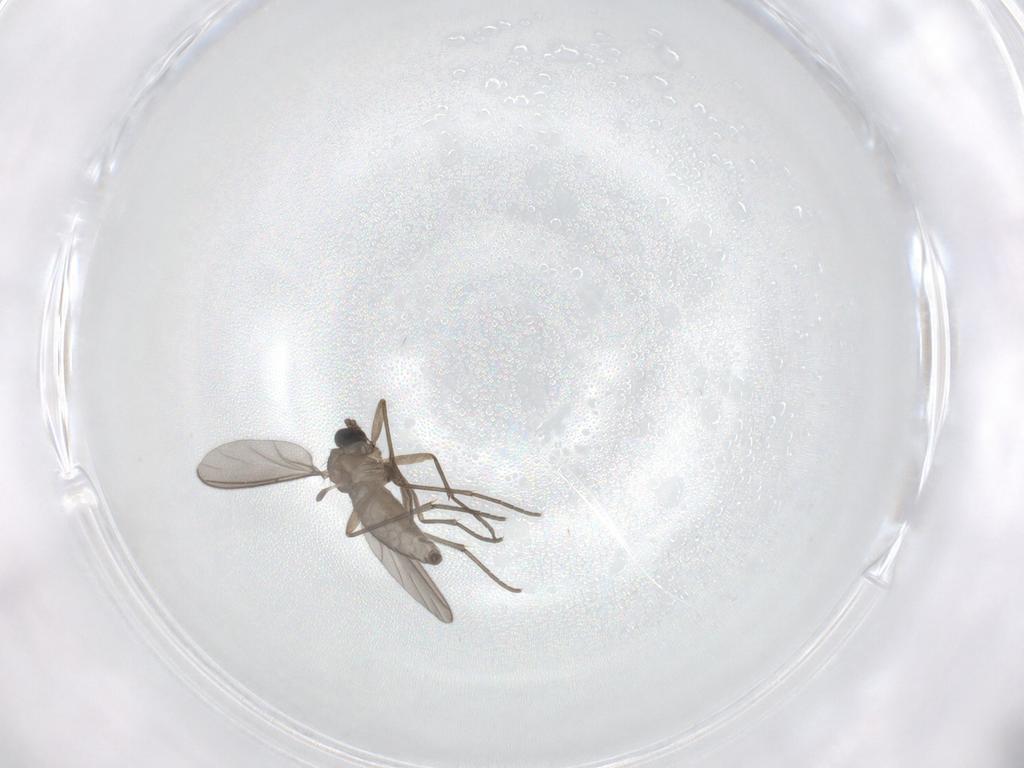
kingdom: Animalia
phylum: Arthropoda
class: Insecta
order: Diptera
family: Sciaridae
